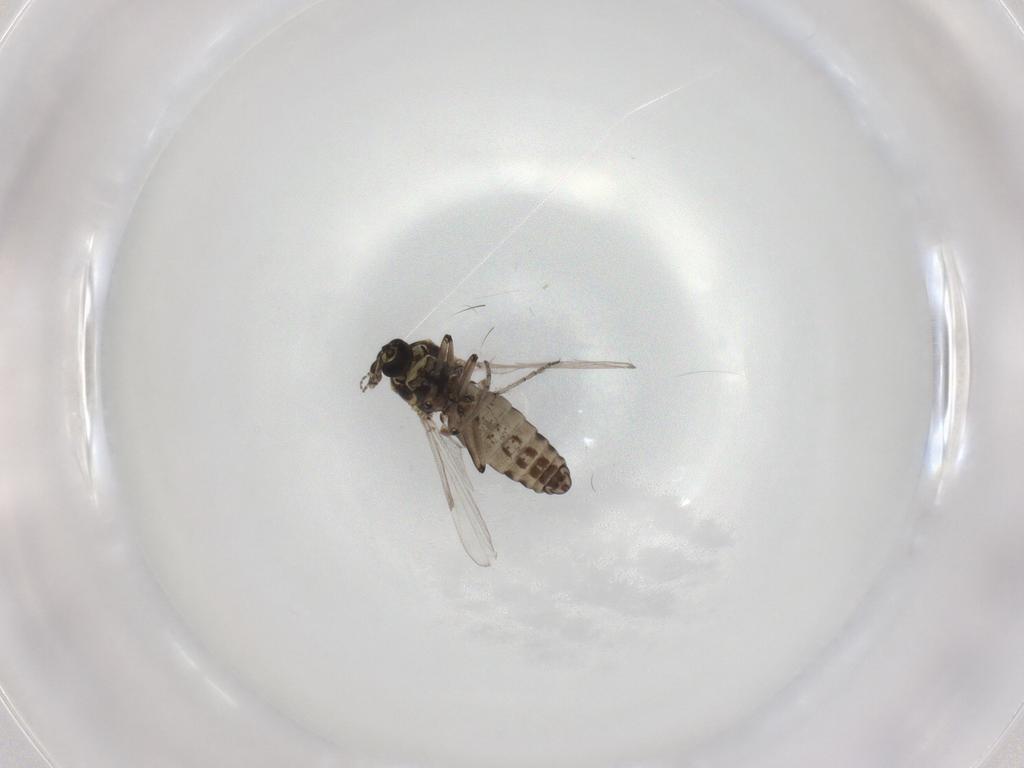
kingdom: Animalia
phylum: Arthropoda
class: Insecta
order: Diptera
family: Ceratopogonidae
